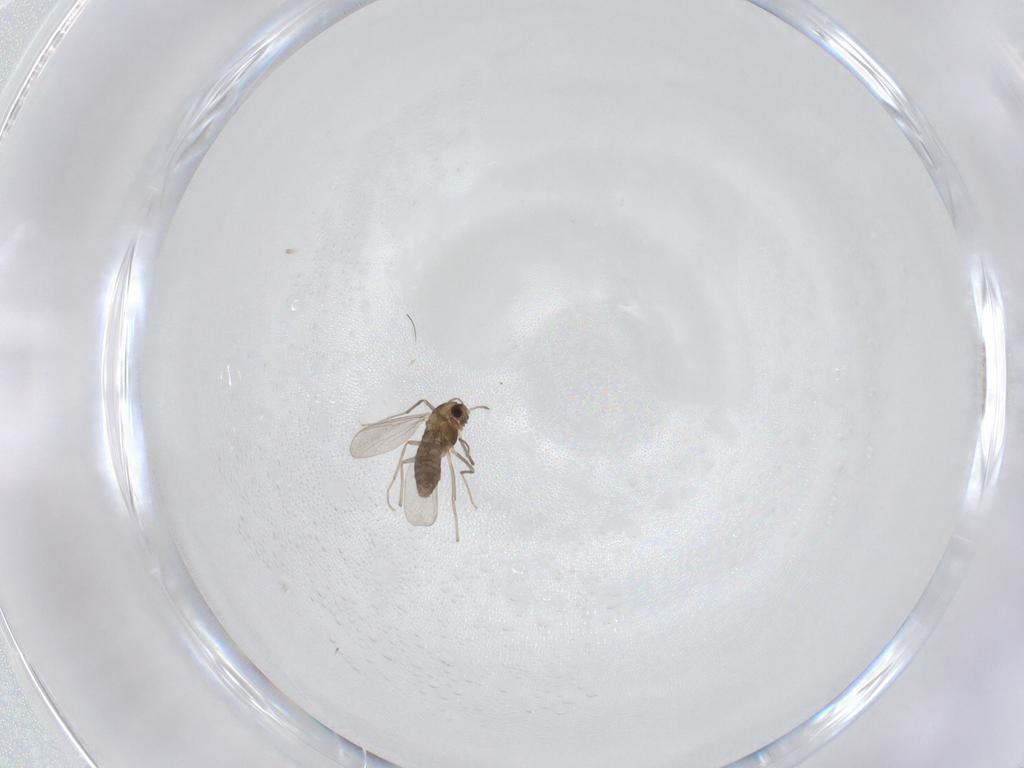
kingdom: Animalia
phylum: Arthropoda
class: Insecta
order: Diptera
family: Chironomidae
